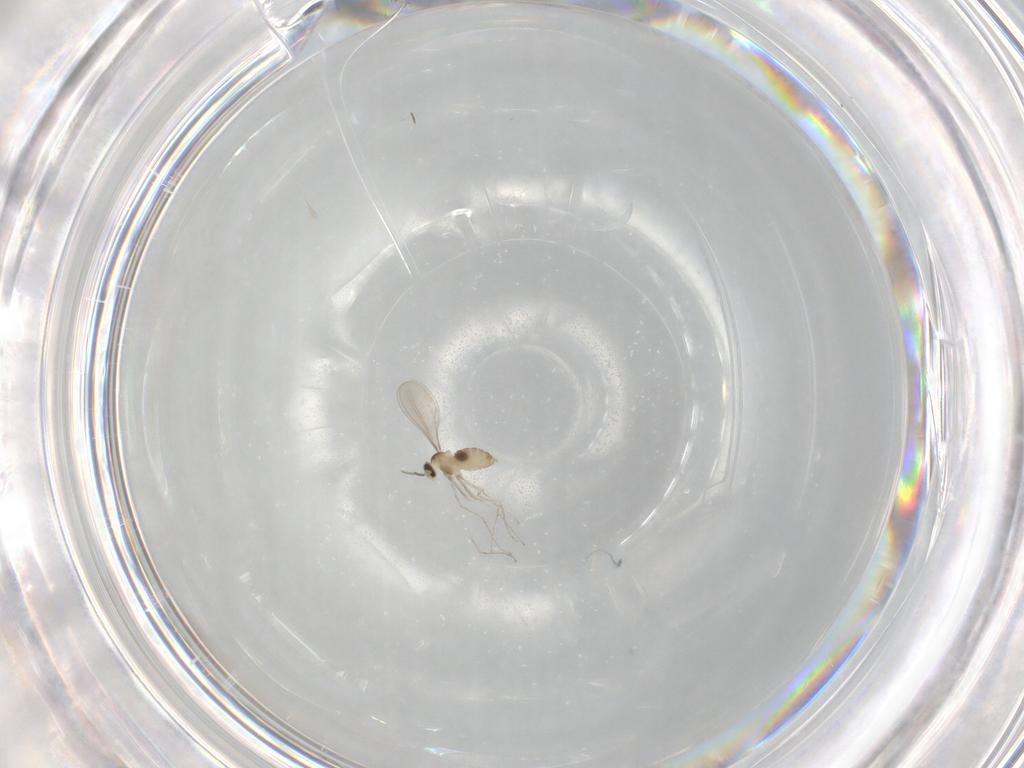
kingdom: Animalia
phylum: Arthropoda
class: Insecta
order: Diptera
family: Cecidomyiidae
